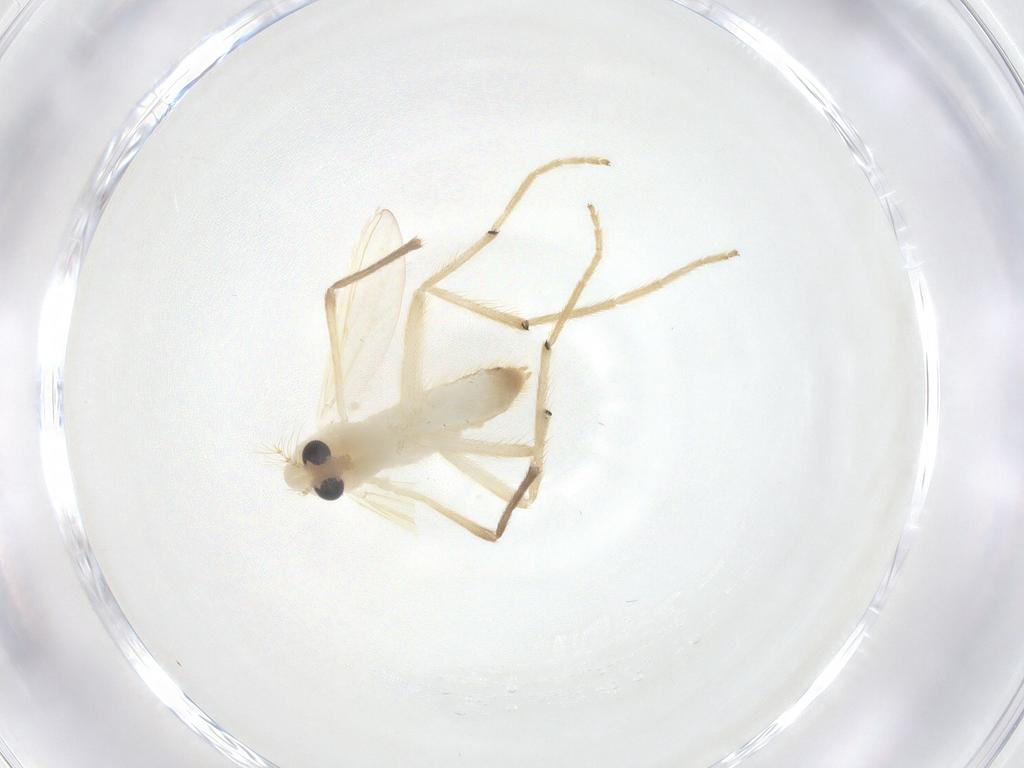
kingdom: Animalia
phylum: Arthropoda
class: Insecta
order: Diptera
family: Chironomidae
